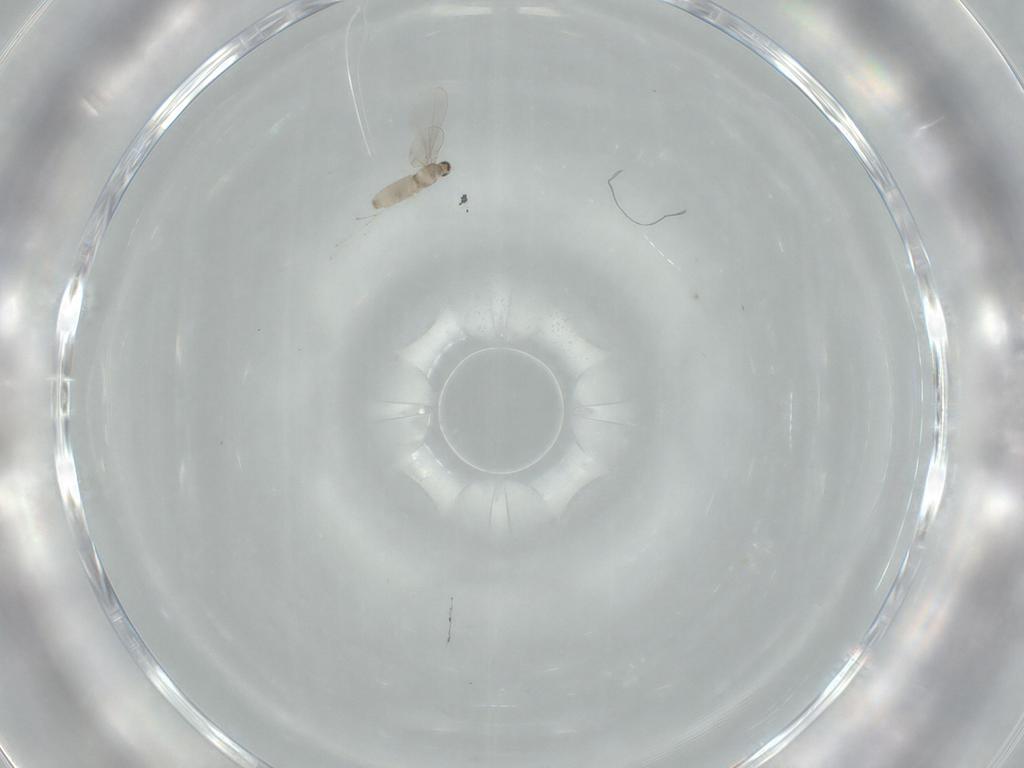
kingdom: Animalia
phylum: Arthropoda
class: Insecta
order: Diptera
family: Cecidomyiidae
